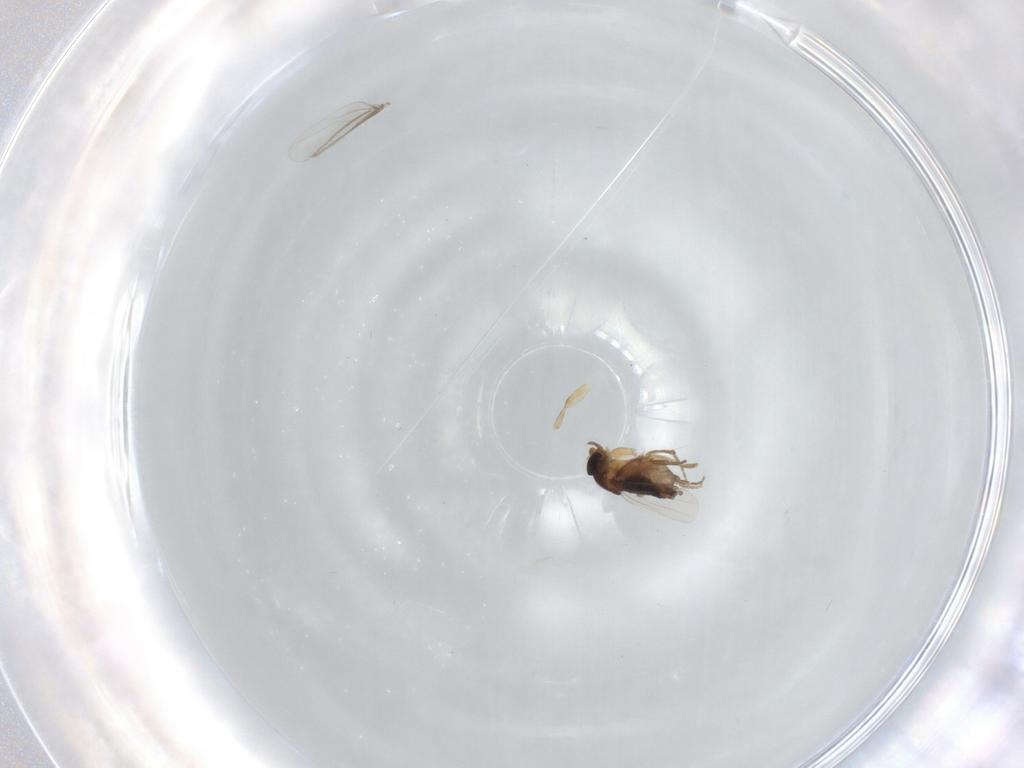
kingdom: Animalia
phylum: Arthropoda
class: Insecta
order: Diptera
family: Phoridae
